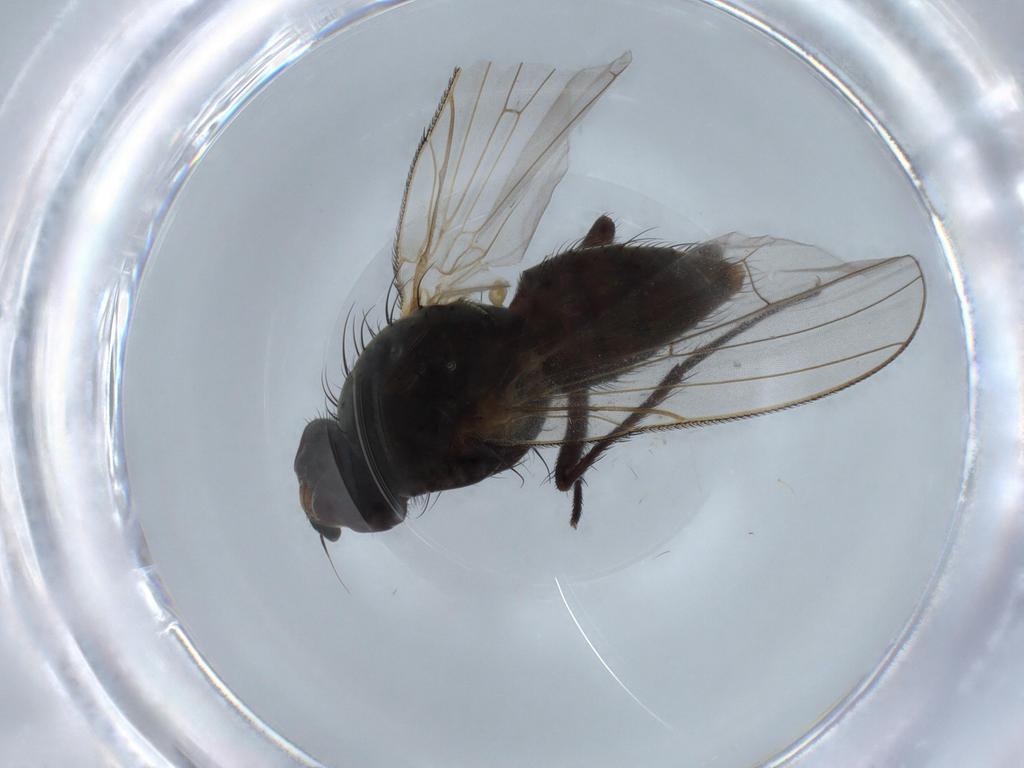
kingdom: Animalia
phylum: Arthropoda
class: Insecta
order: Diptera
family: Anthomyiidae
